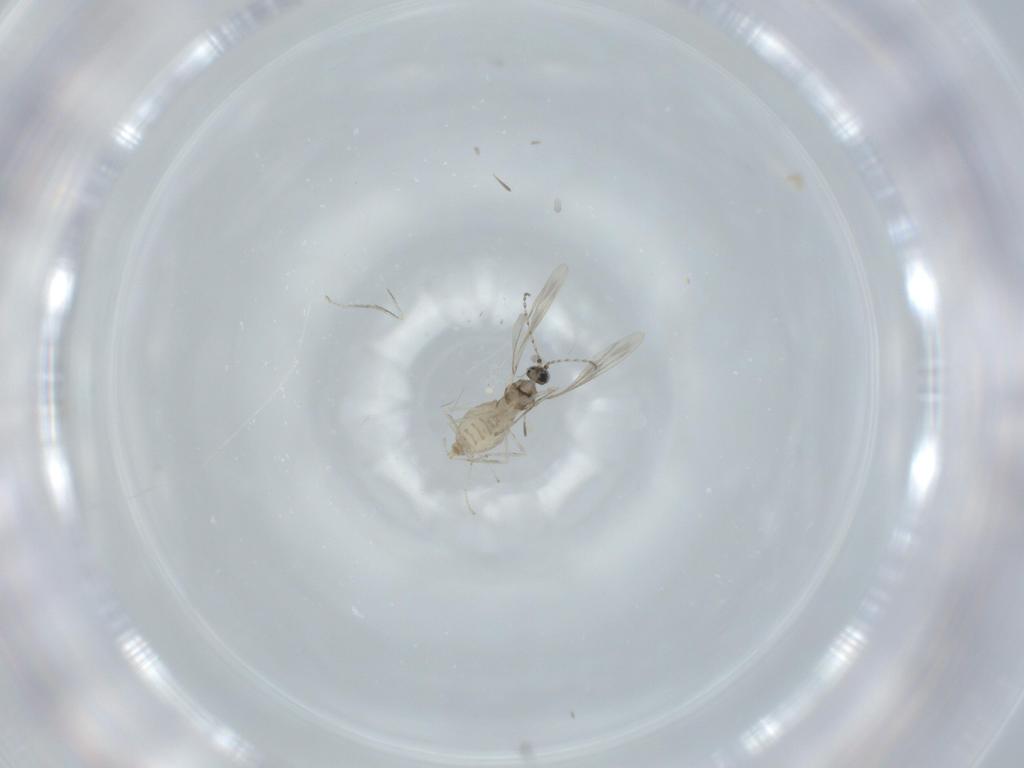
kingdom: Animalia
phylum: Arthropoda
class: Insecta
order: Diptera
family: Cecidomyiidae
